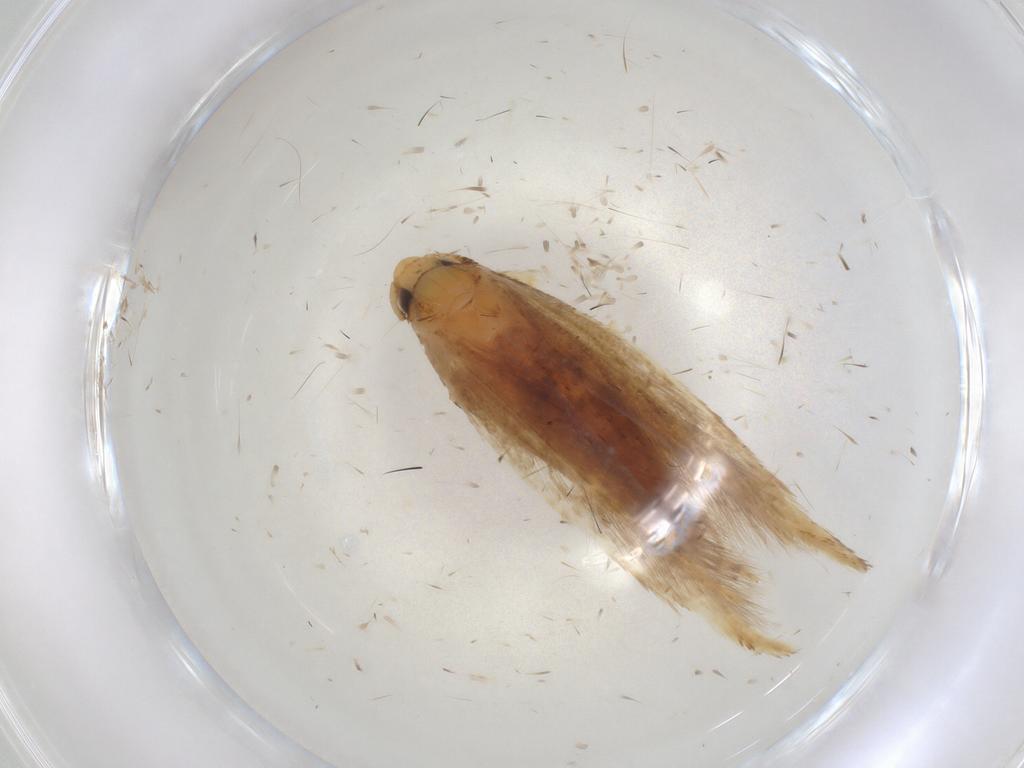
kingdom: Animalia
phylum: Arthropoda
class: Insecta
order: Lepidoptera
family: Tineidae
